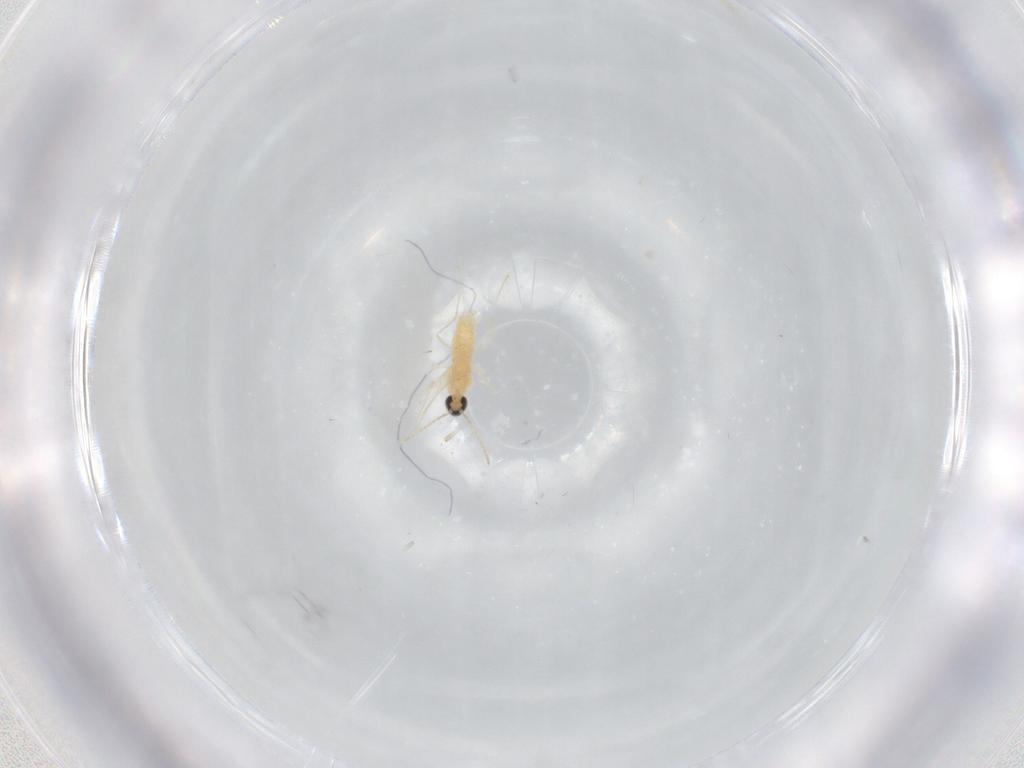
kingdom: Animalia
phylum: Arthropoda
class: Insecta
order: Diptera
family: Cecidomyiidae
